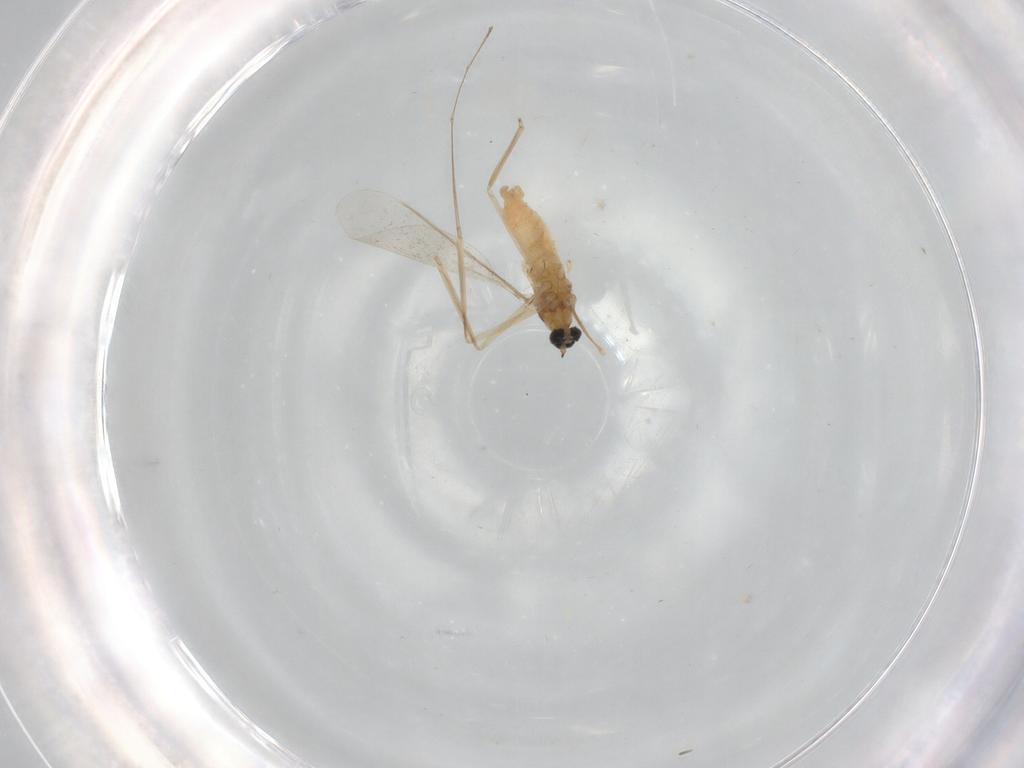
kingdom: Animalia
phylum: Arthropoda
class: Insecta
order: Diptera
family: Cecidomyiidae
